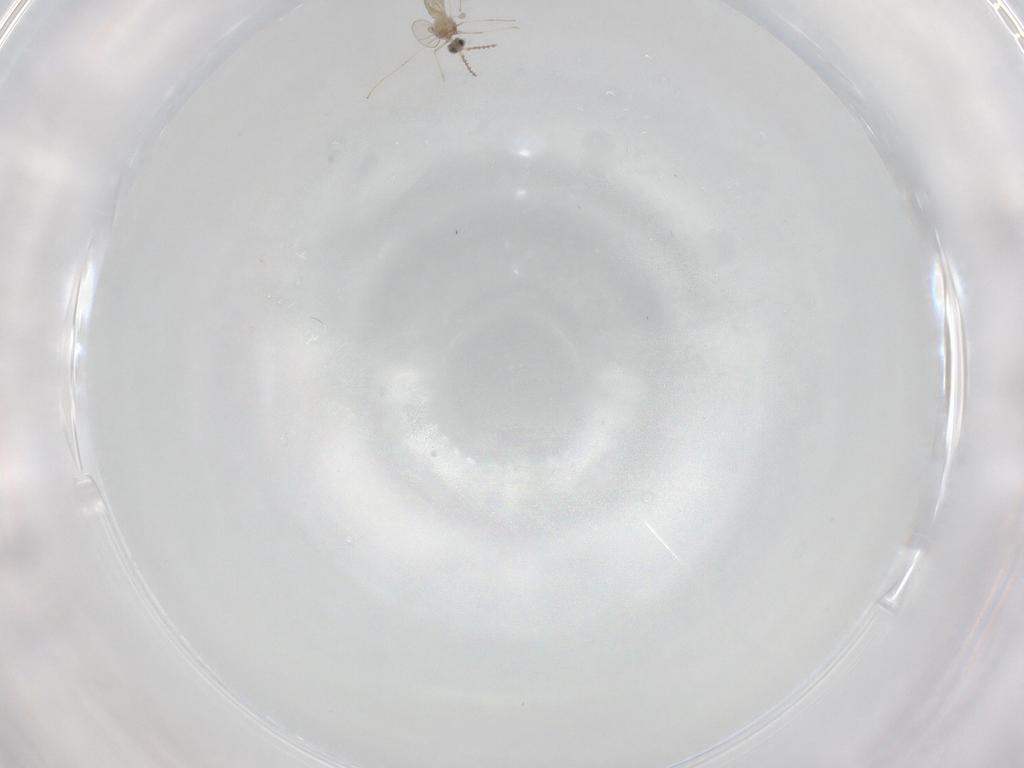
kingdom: Animalia
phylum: Arthropoda
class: Insecta
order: Diptera
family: Cecidomyiidae
